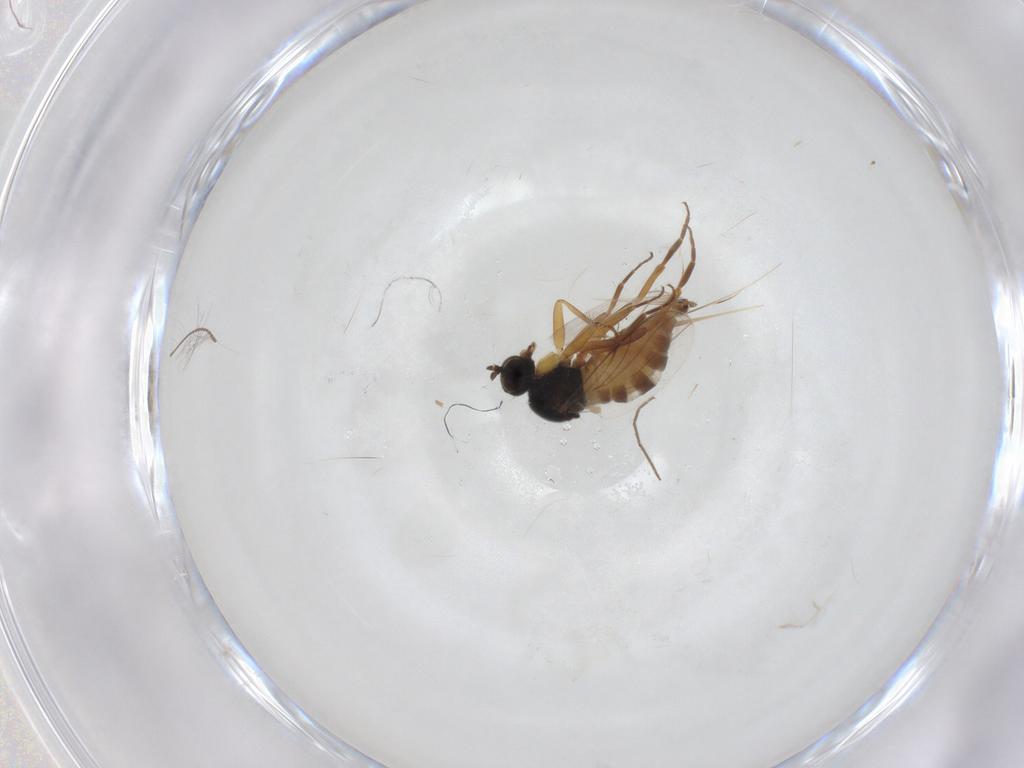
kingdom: Animalia
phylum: Arthropoda
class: Insecta
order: Diptera
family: Hybotidae
